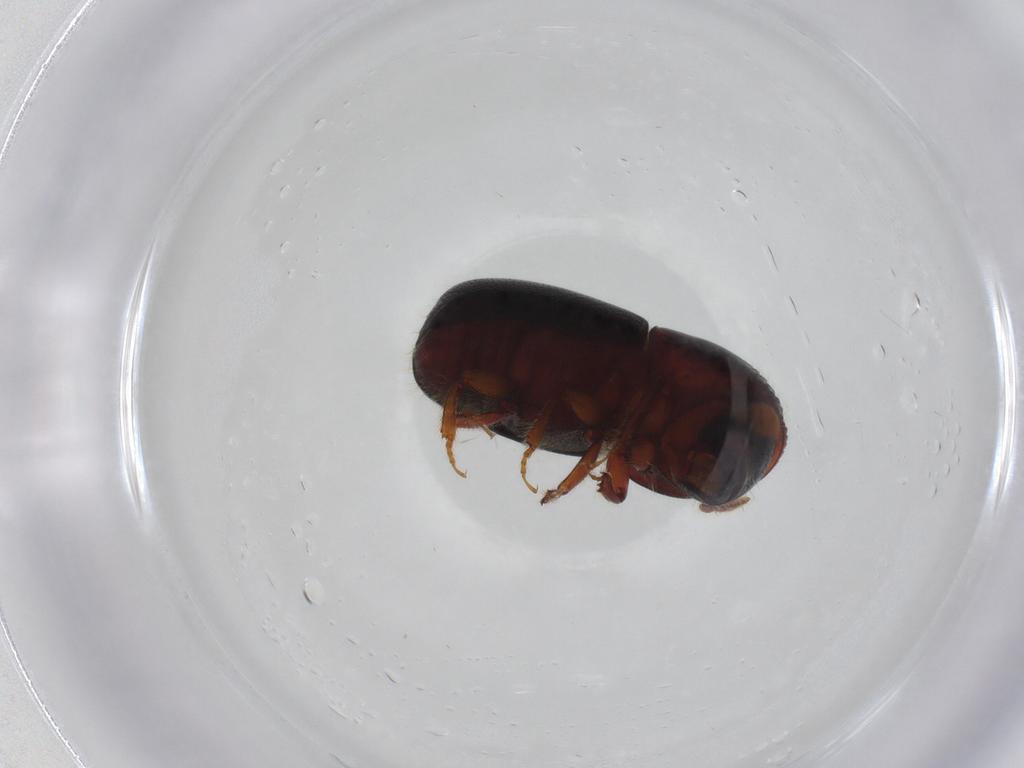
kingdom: Animalia
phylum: Arthropoda
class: Insecta
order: Coleoptera
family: Curculionidae
